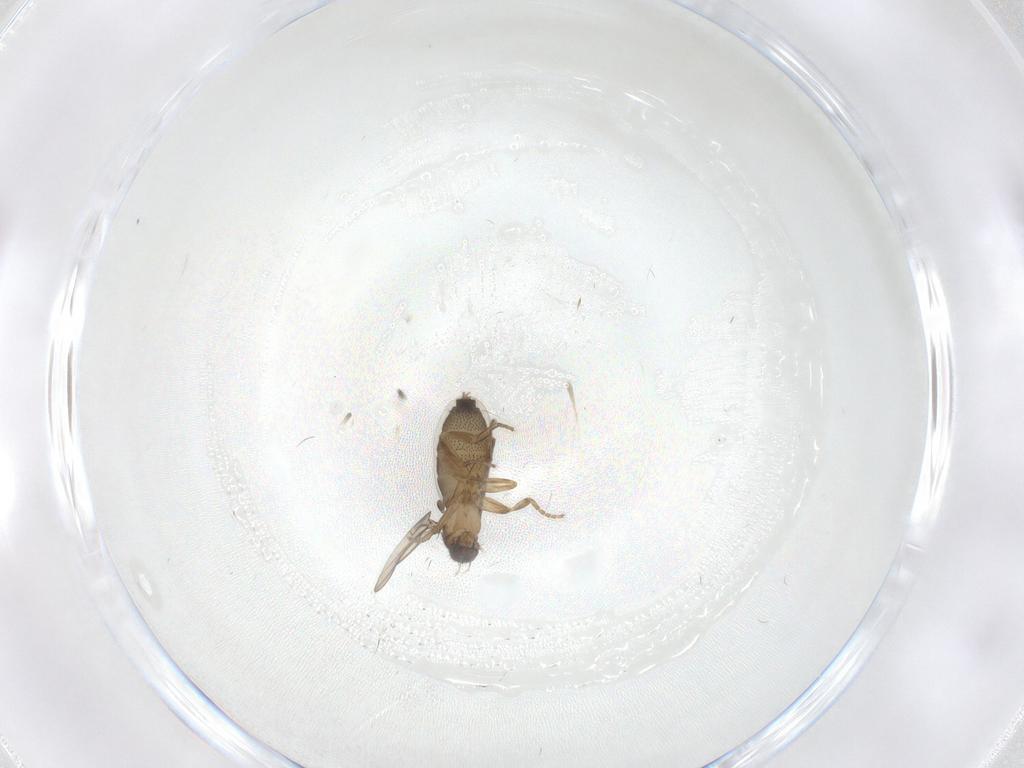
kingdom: Animalia
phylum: Arthropoda
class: Insecta
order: Diptera
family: Phoridae
